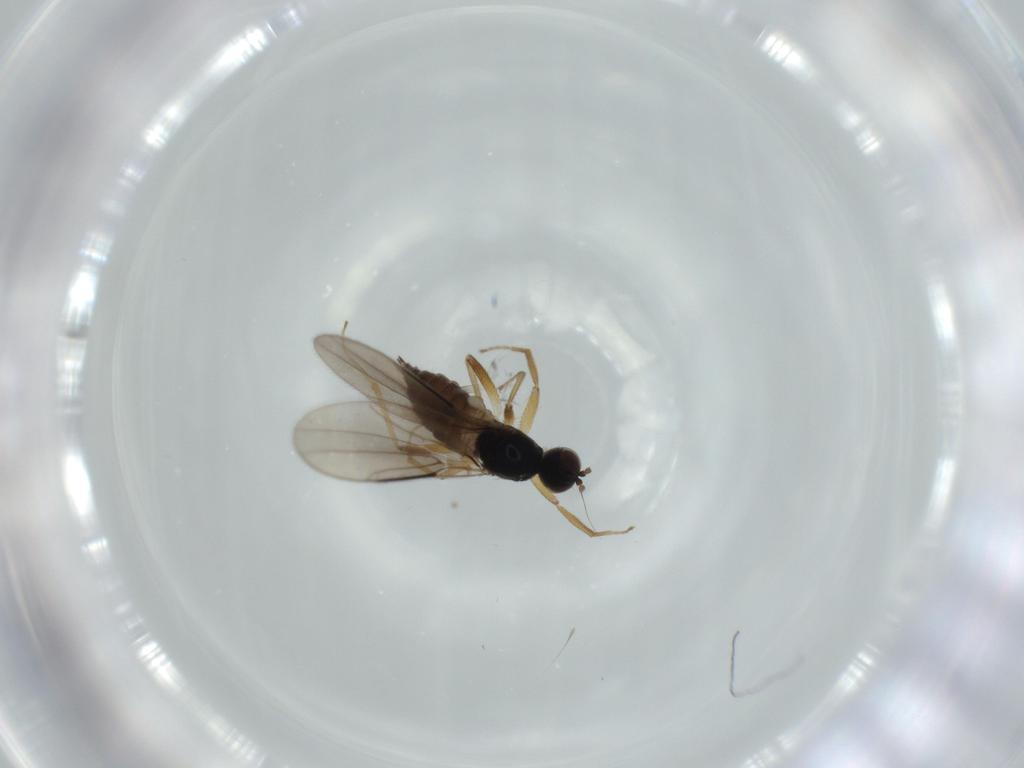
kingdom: Animalia
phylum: Arthropoda
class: Insecta
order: Diptera
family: Hybotidae
